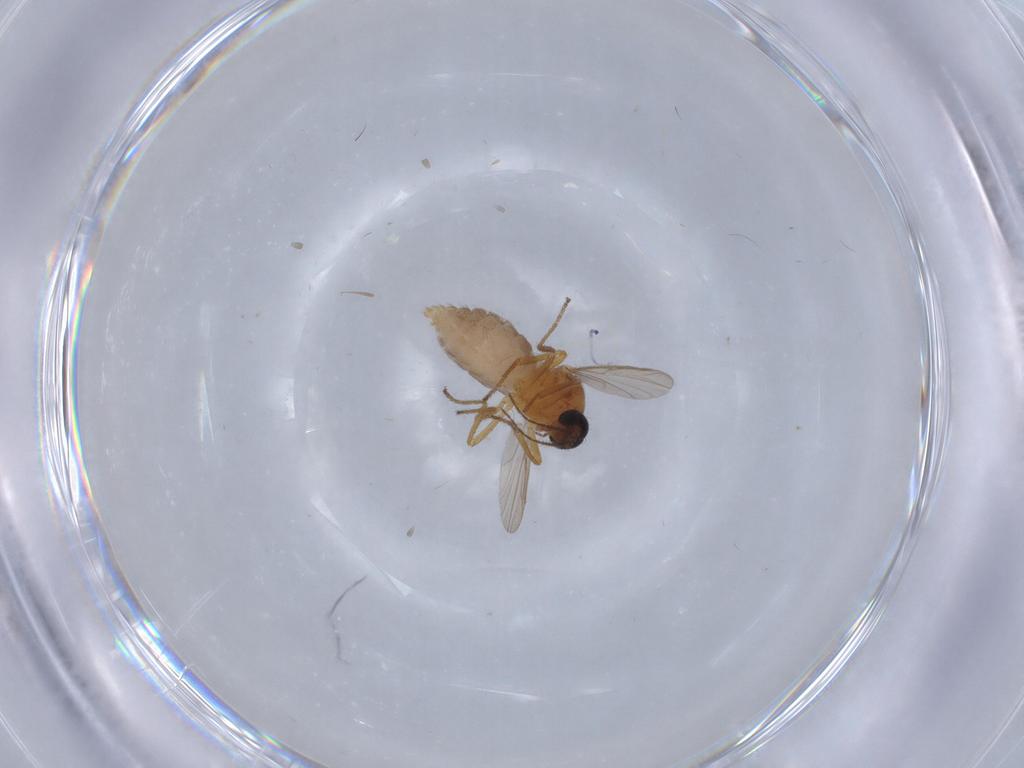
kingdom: Animalia
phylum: Arthropoda
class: Insecta
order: Diptera
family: Ceratopogonidae
